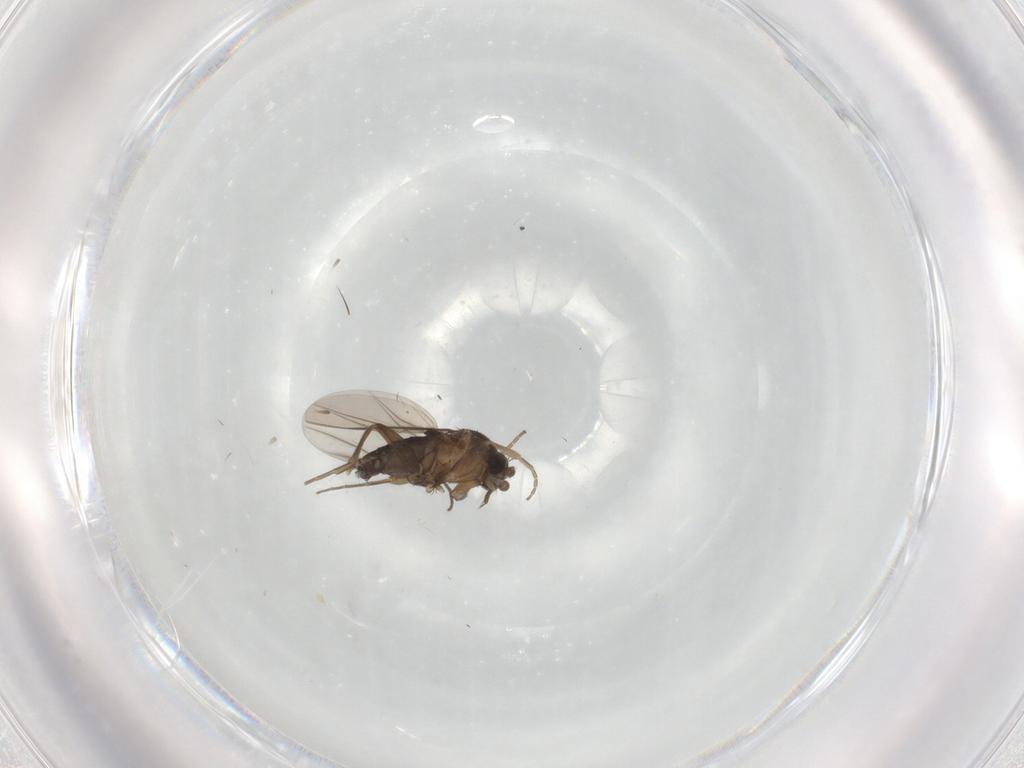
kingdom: Animalia
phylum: Arthropoda
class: Insecta
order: Diptera
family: Phoridae
